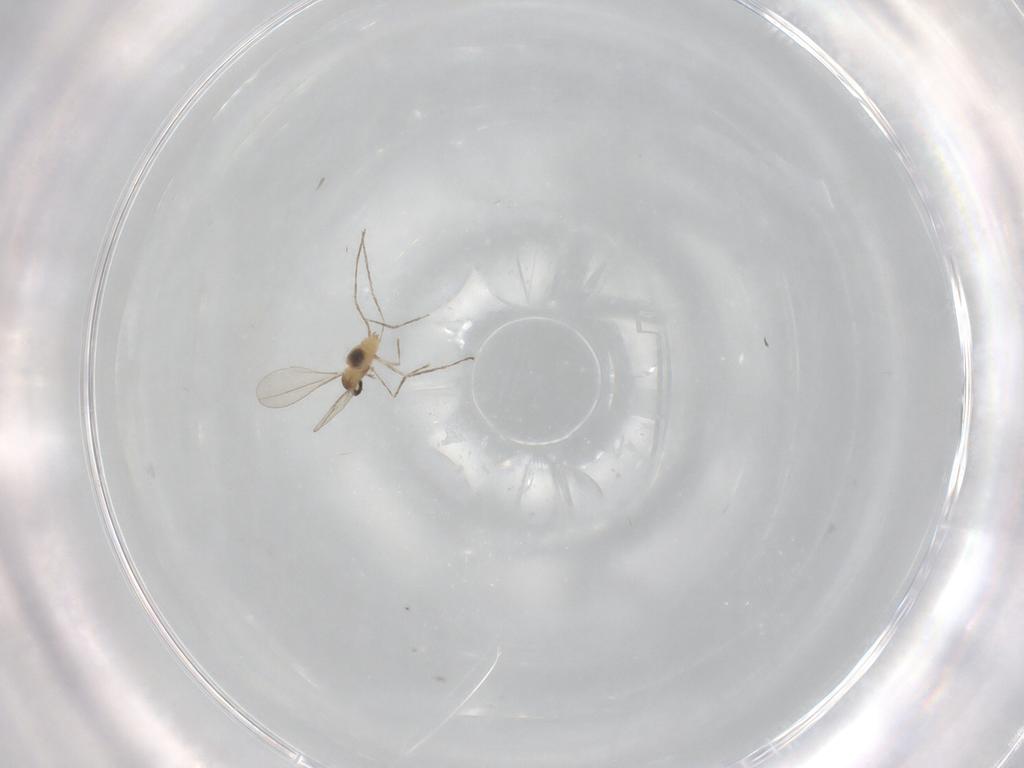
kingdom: Animalia
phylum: Arthropoda
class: Insecta
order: Diptera
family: Cecidomyiidae
